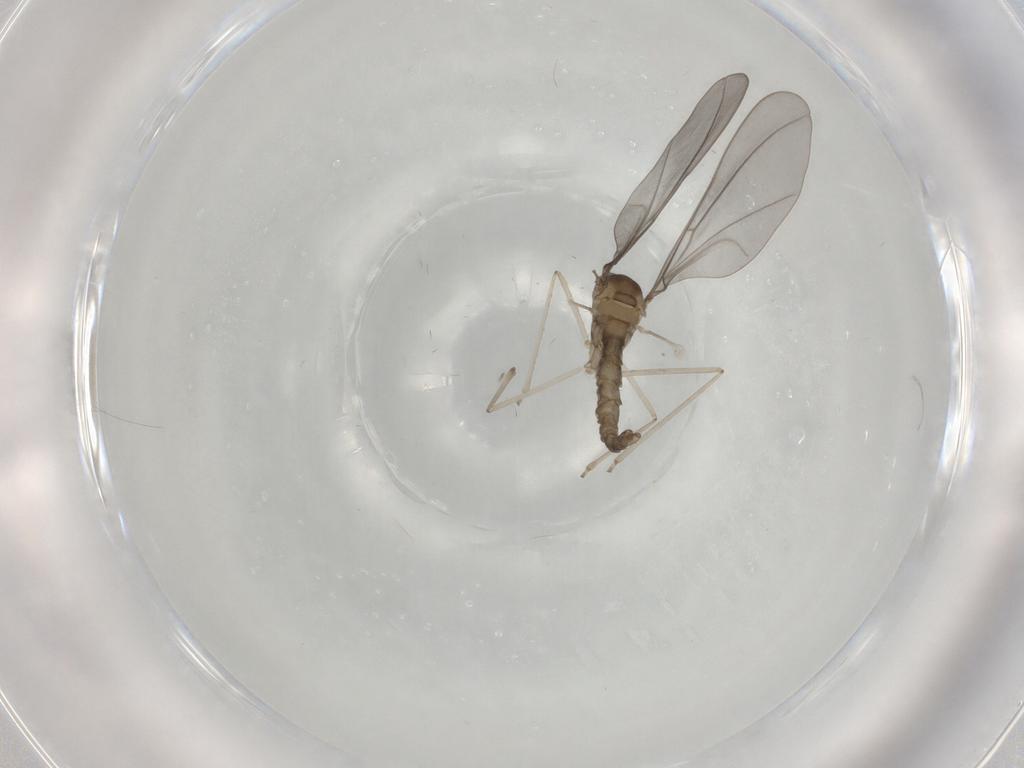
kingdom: Animalia
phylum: Arthropoda
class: Insecta
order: Diptera
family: Cecidomyiidae
